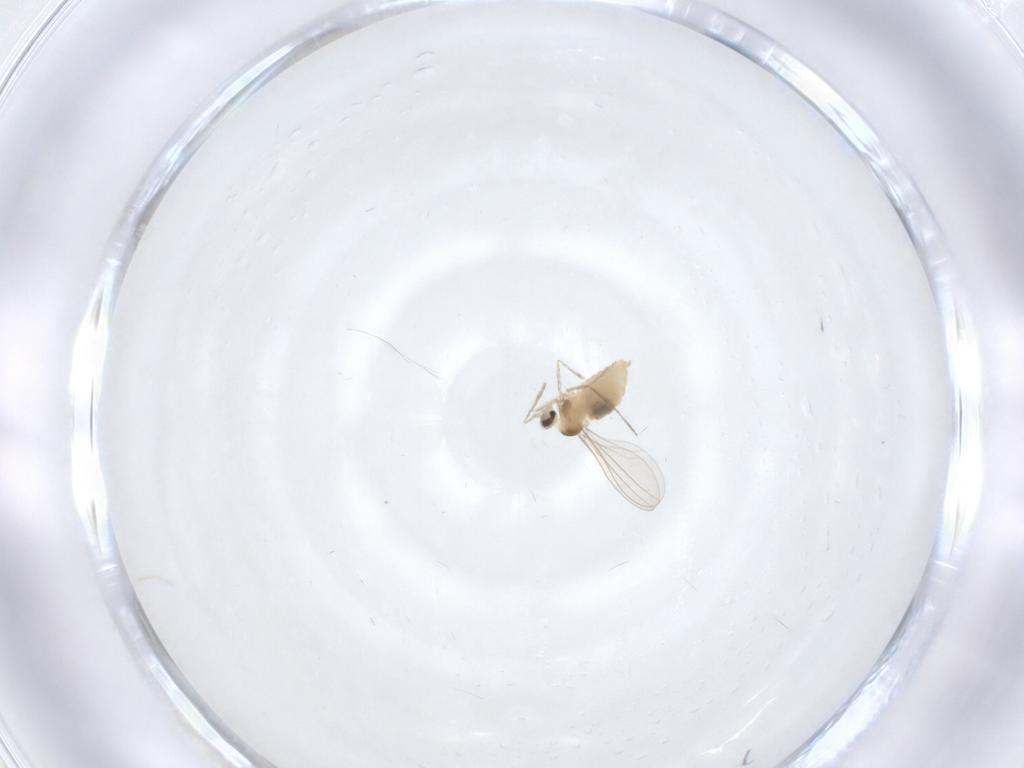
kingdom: Animalia
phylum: Arthropoda
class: Insecta
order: Diptera
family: Cecidomyiidae
